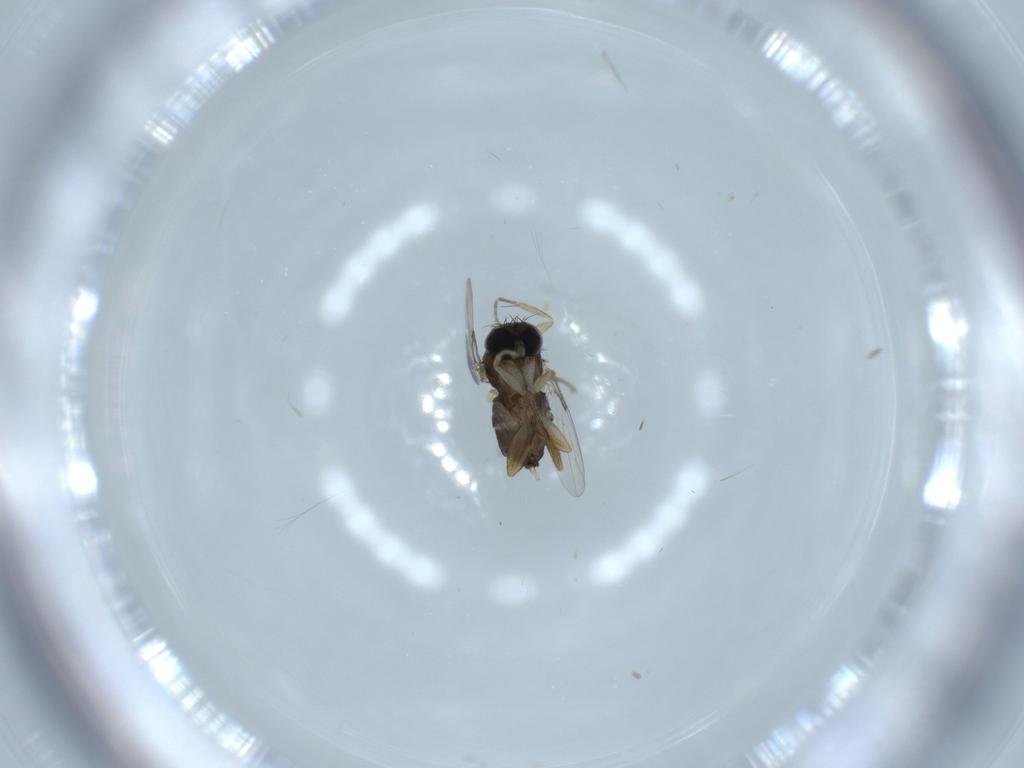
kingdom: Animalia
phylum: Arthropoda
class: Insecta
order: Diptera
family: Phoridae
